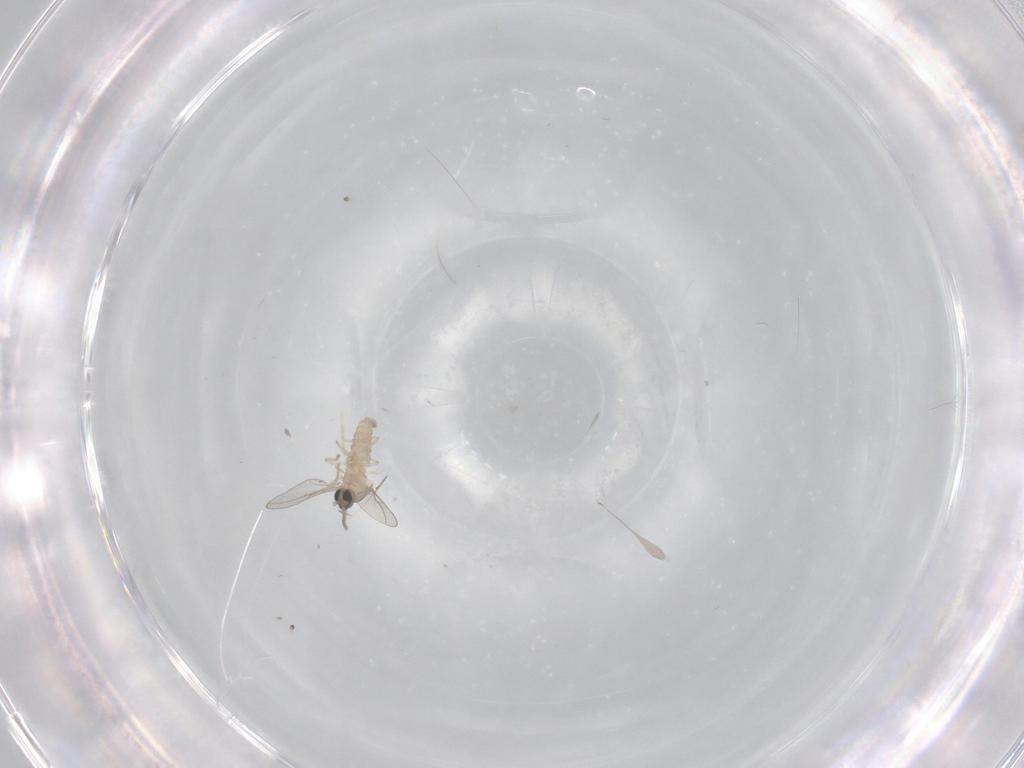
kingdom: Animalia
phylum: Arthropoda
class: Insecta
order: Diptera
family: Cecidomyiidae
